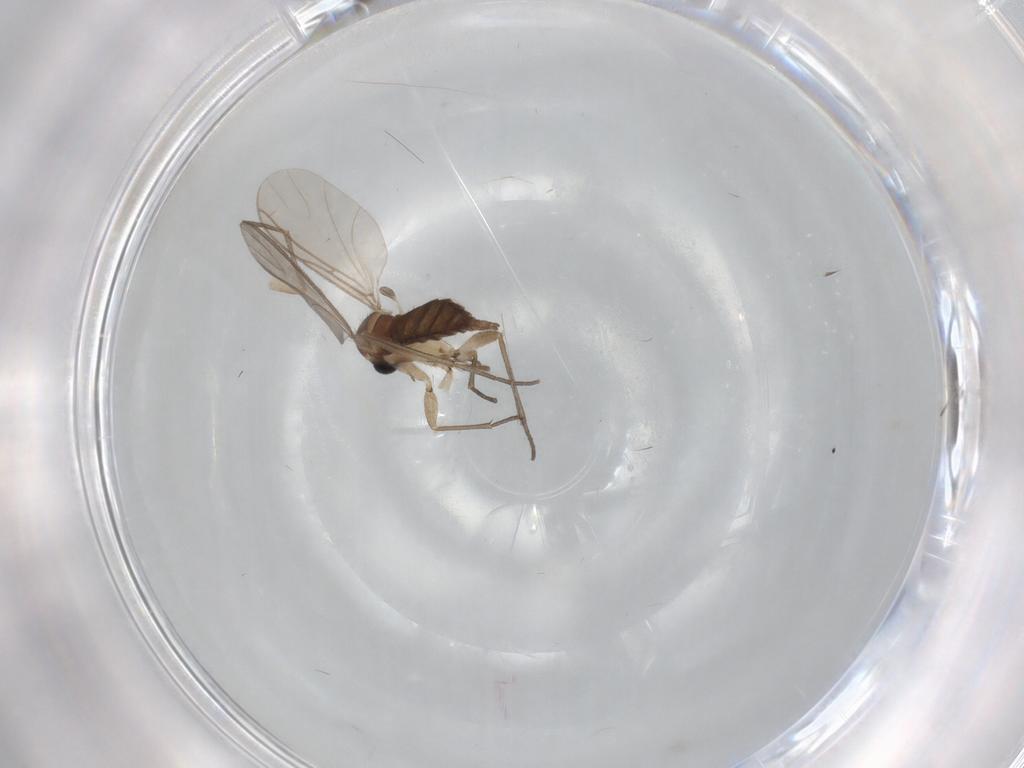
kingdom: Animalia
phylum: Arthropoda
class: Insecta
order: Diptera
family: Sciaridae
